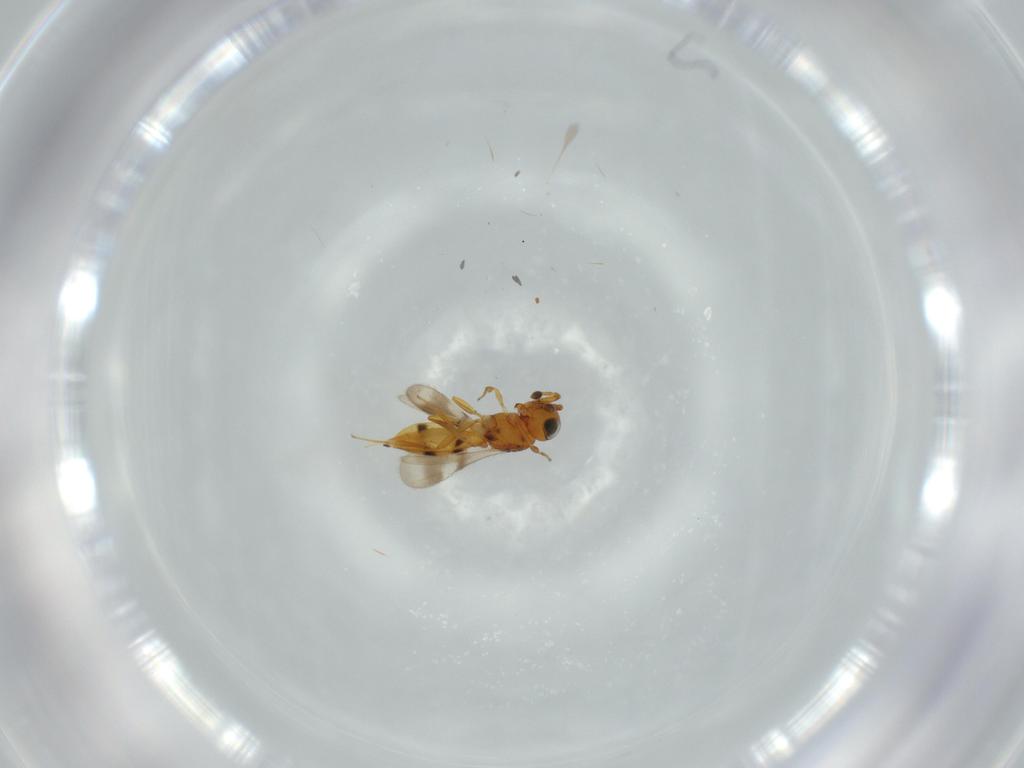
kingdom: Animalia
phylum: Arthropoda
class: Insecta
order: Hymenoptera
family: Scelionidae
